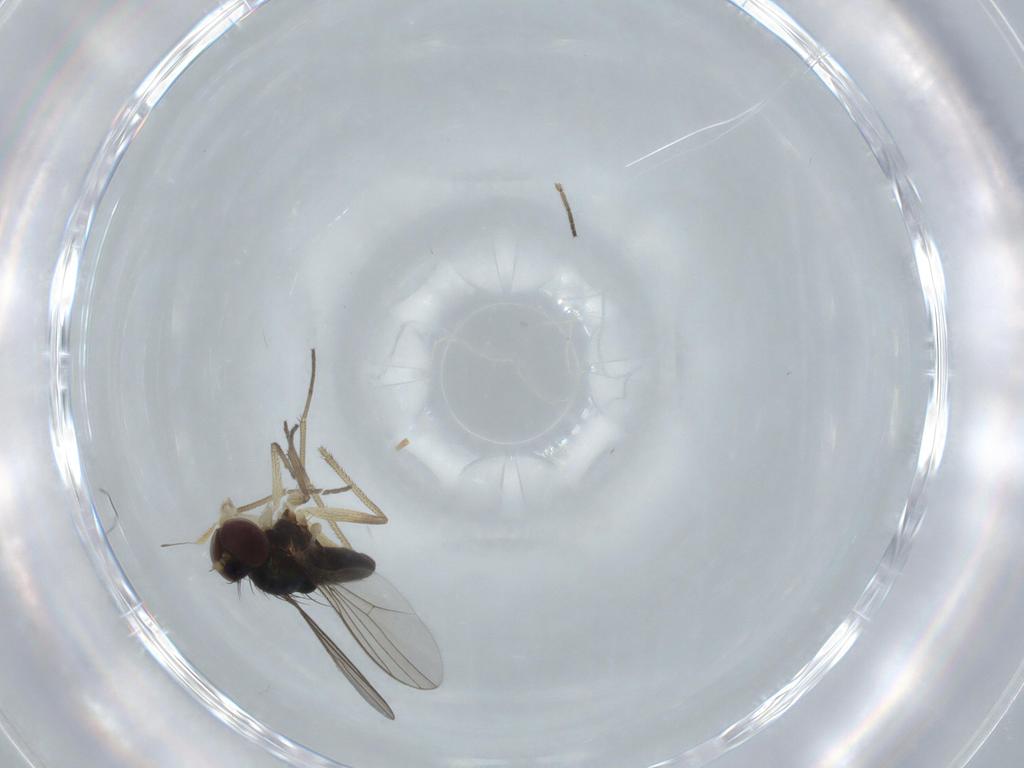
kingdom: Animalia
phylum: Arthropoda
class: Insecta
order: Diptera
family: Dolichopodidae
